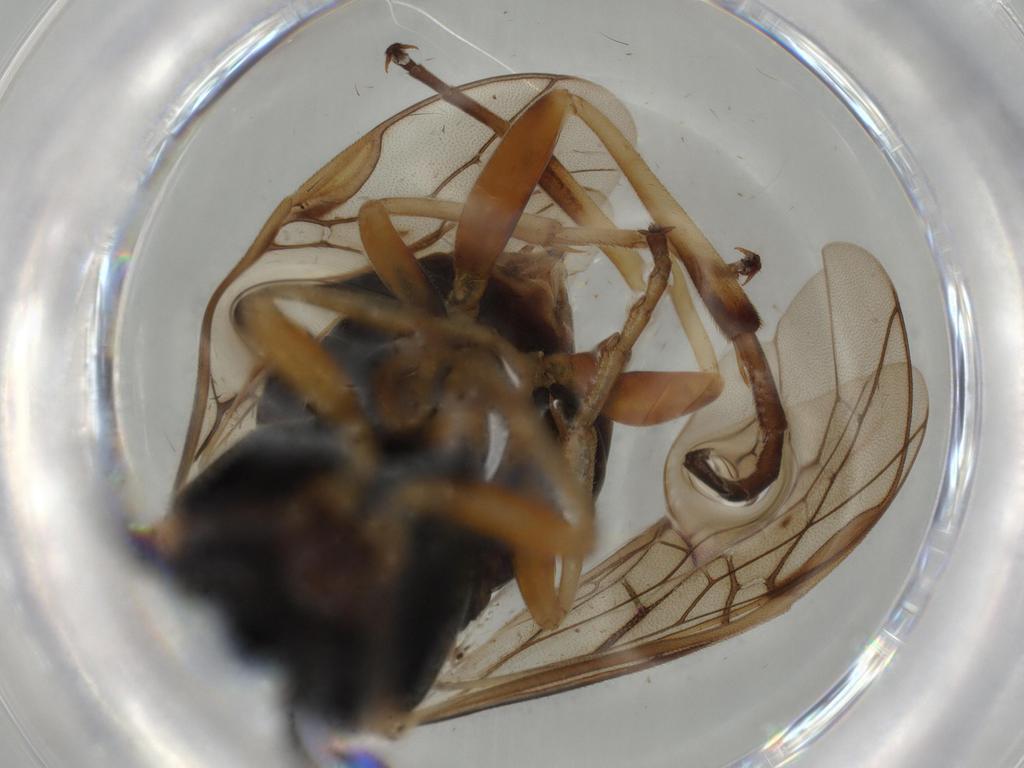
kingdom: Animalia
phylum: Arthropoda
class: Insecta
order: Hymenoptera
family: Tenthredinidae
